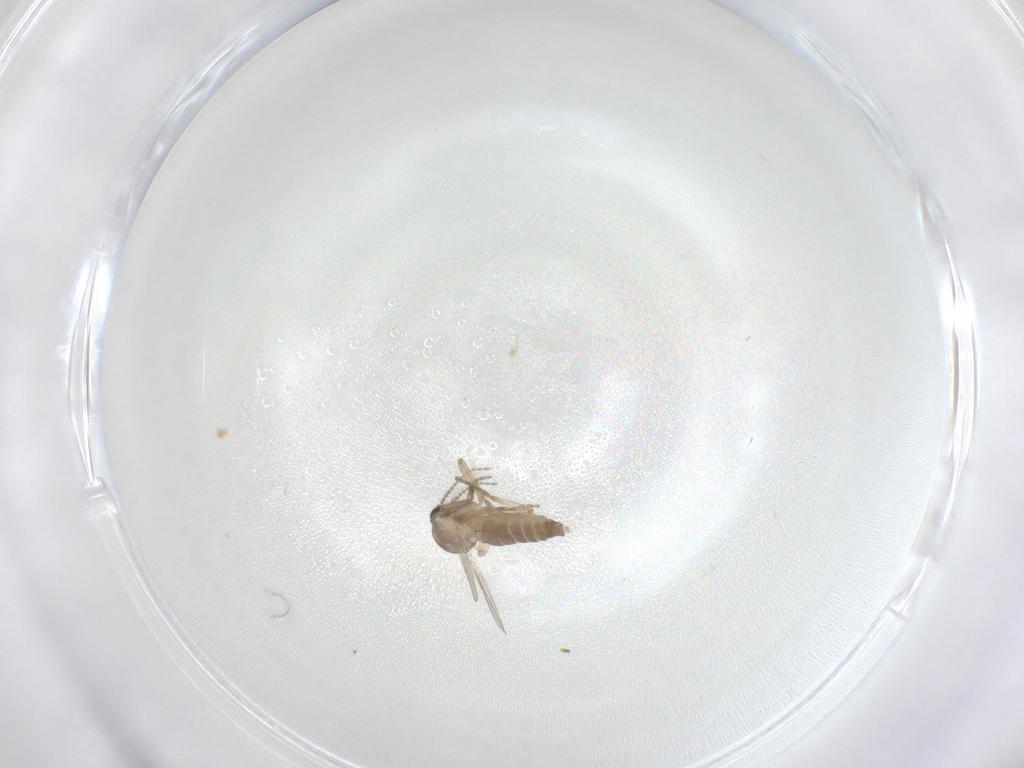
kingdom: Animalia
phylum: Arthropoda
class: Insecta
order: Diptera
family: Ceratopogonidae
